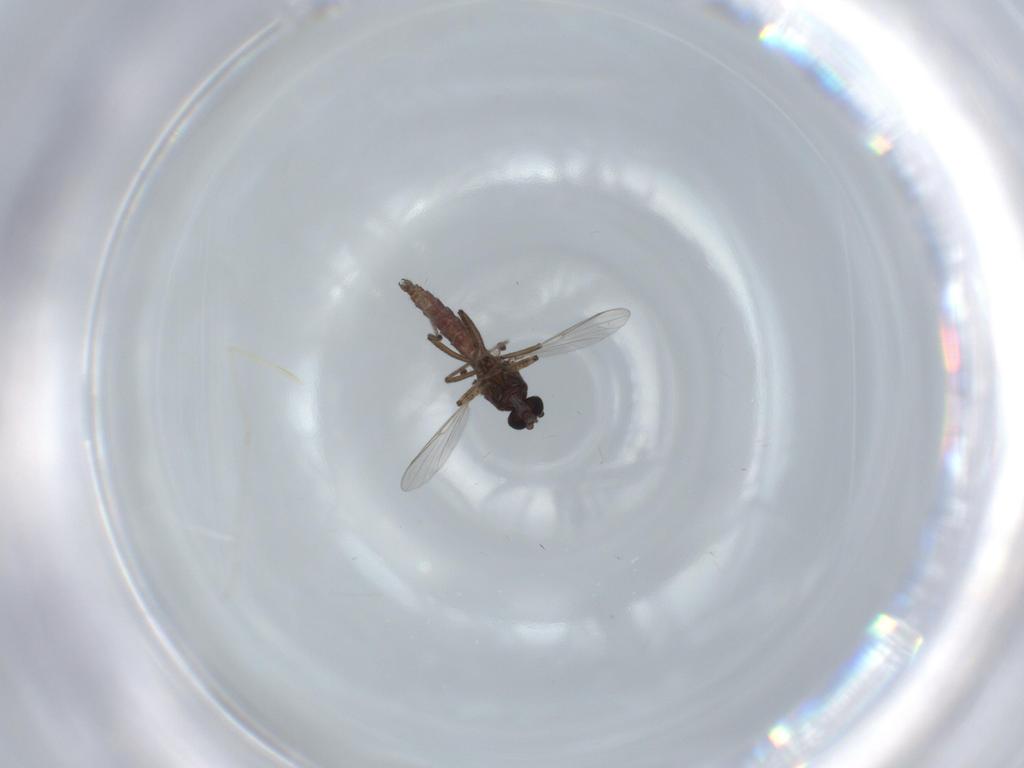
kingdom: Animalia
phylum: Arthropoda
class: Insecta
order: Diptera
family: Ceratopogonidae
